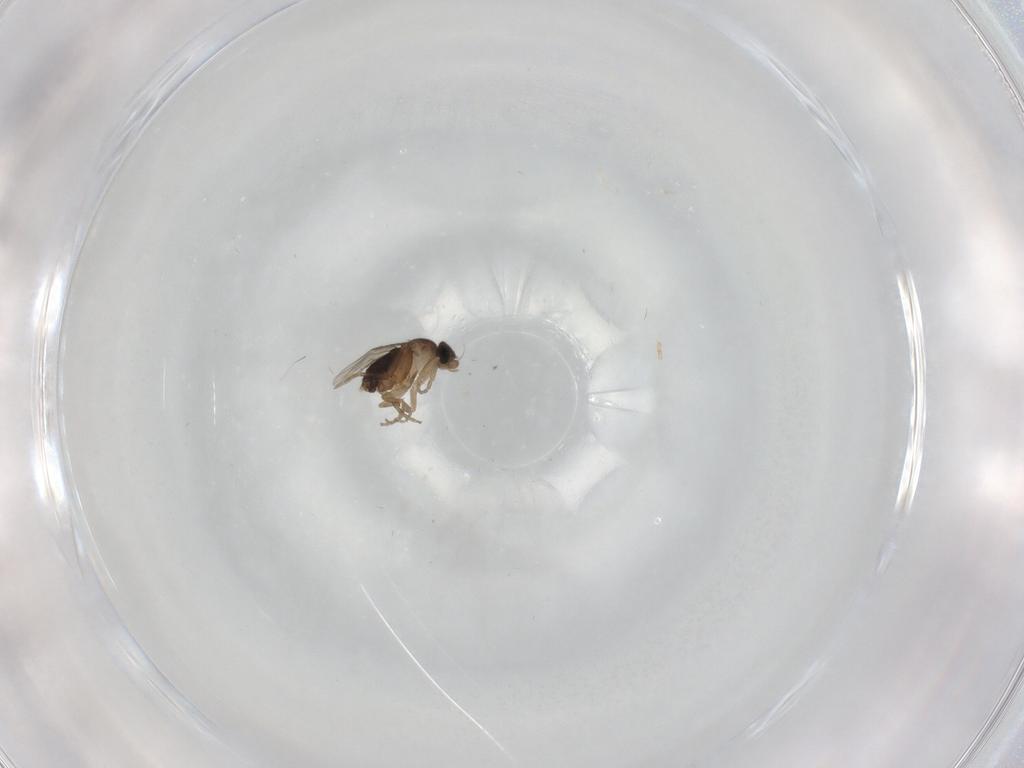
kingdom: Animalia
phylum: Arthropoda
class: Insecta
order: Diptera
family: Phoridae
